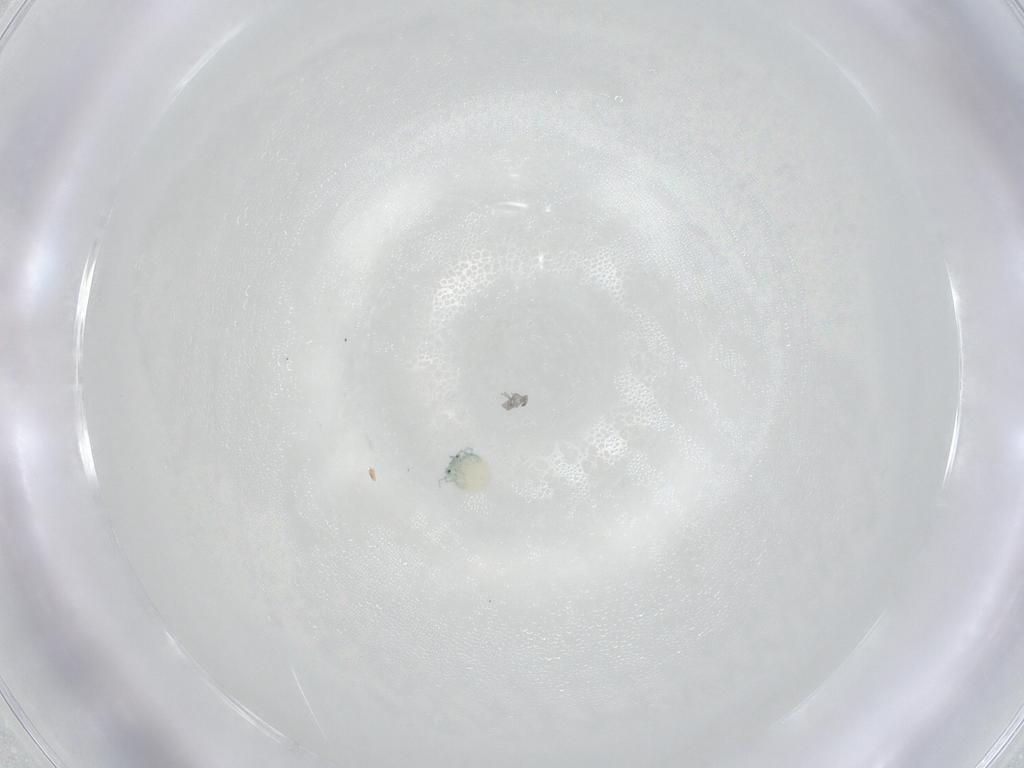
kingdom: Animalia
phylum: Arthropoda
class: Arachnida
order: Trombidiformes
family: Arrenuridae
